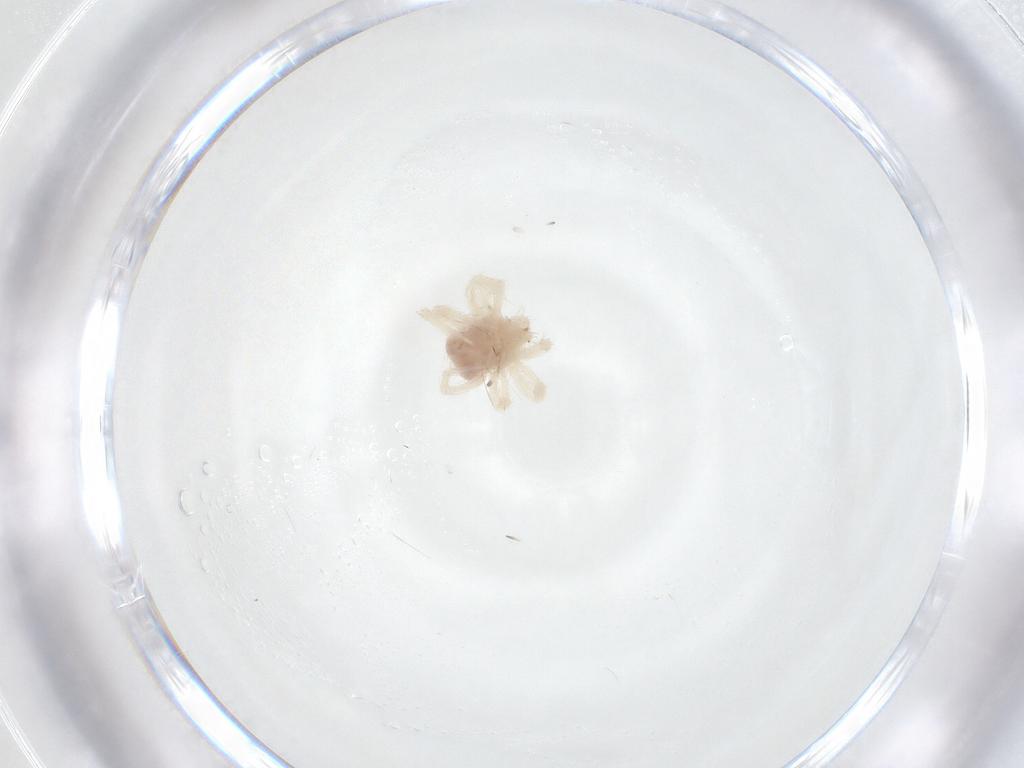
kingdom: Animalia
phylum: Arthropoda
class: Arachnida
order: Trombidiformes
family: Anystidae
